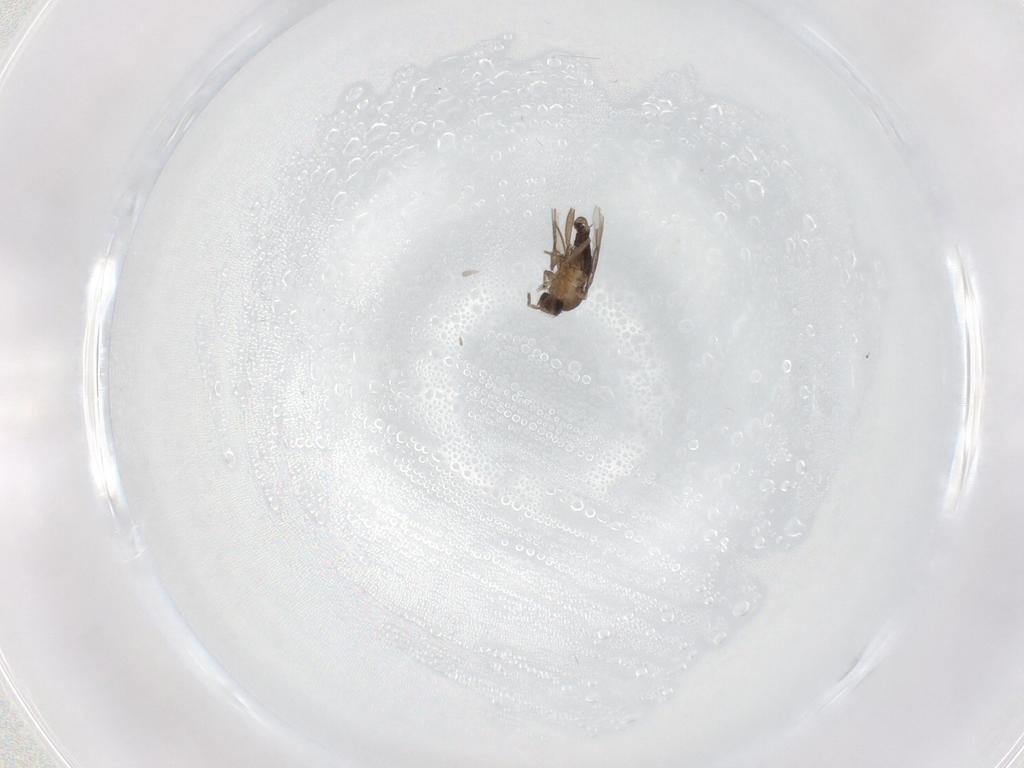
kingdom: Animalia
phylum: Arthropoda
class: Insecta
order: Diptera
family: Phoridae
